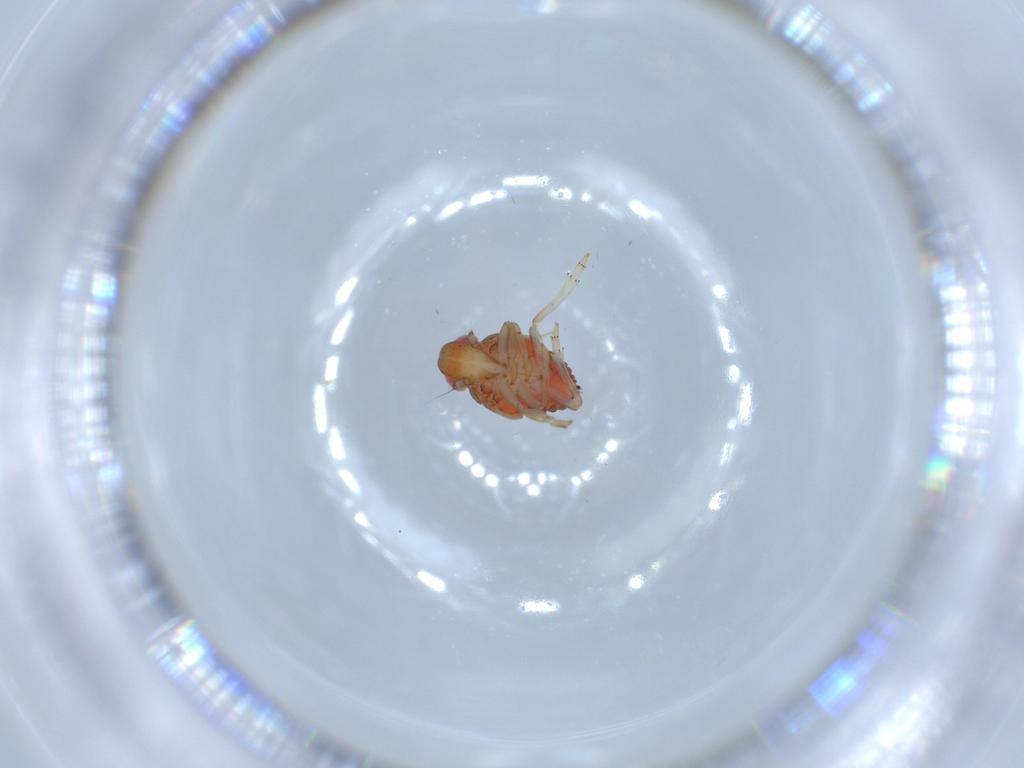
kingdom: Animalia
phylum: Arthropoda
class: Insecta
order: Hemiptera
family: Issidae
